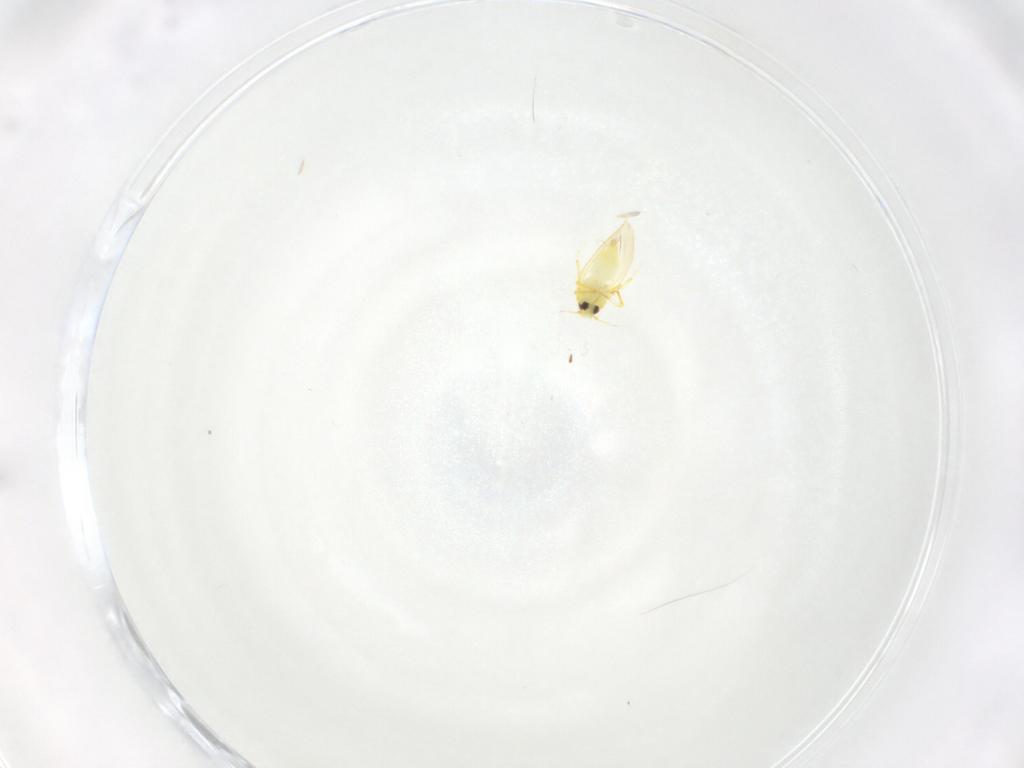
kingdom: Animalia
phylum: Arthropoda
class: Insecta
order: Hemiptera
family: Aleyrodidae
